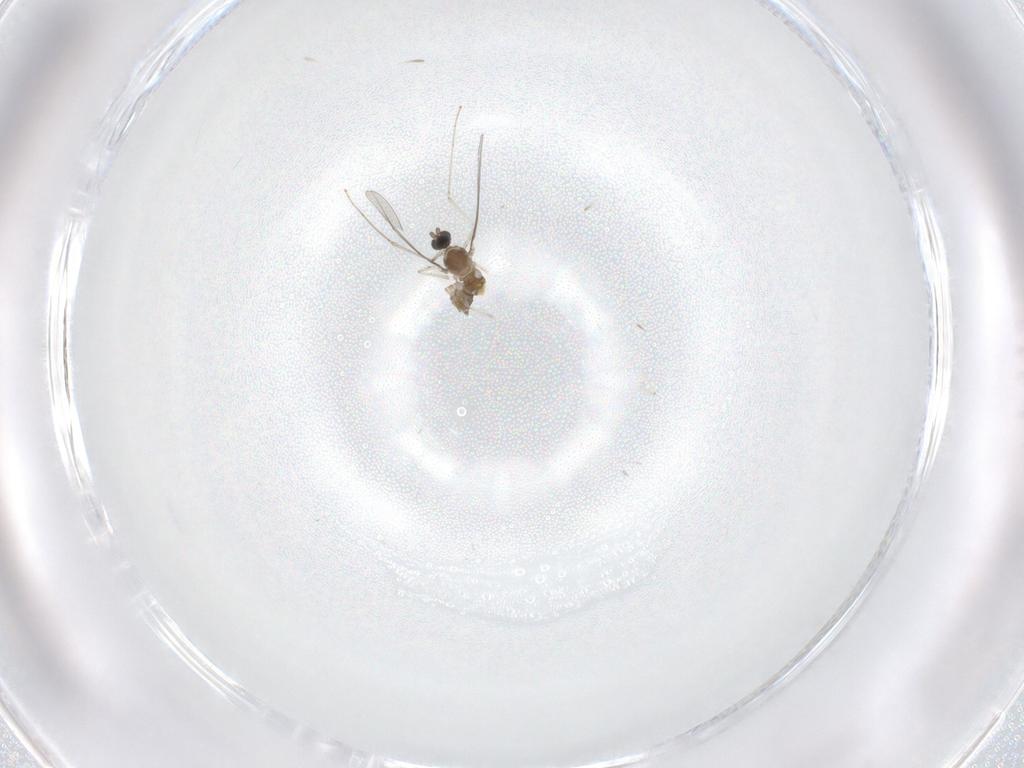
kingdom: Animalia
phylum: Arthropoda
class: Insecta
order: Diptera
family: Cecidomyiidae
